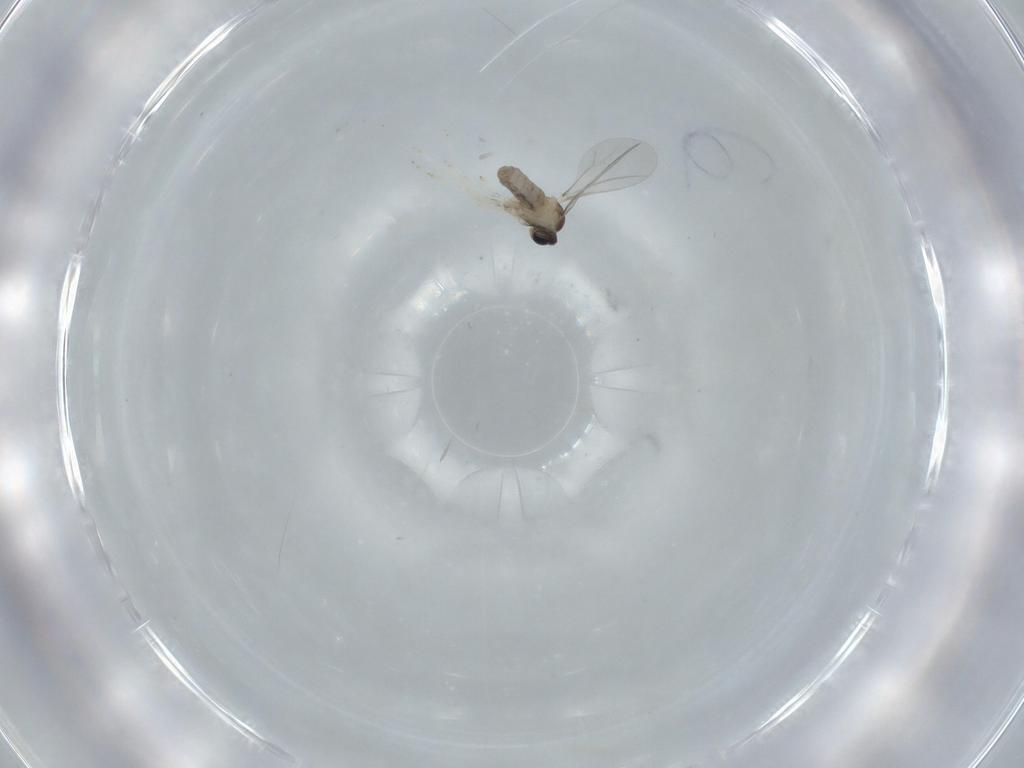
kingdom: Animalia
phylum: Arthropoda
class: Insecta
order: Diptera
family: Cecidomyiidae
